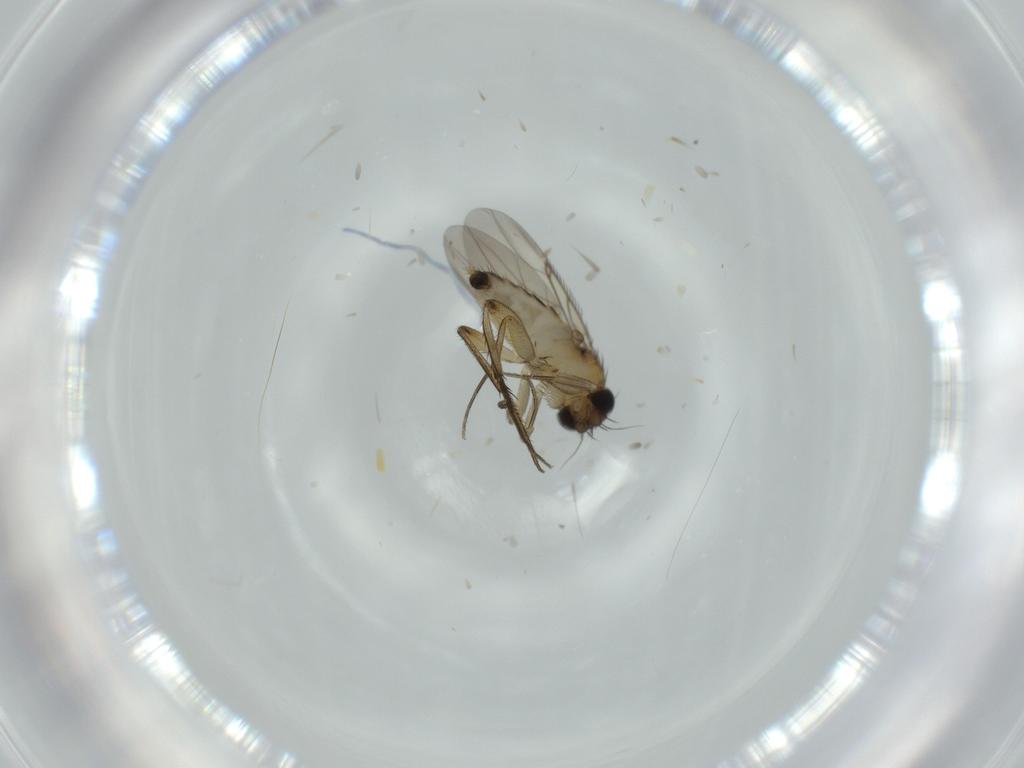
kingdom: Animalia
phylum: Arthropoda
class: Insecta
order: Diptera
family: Phoridae
